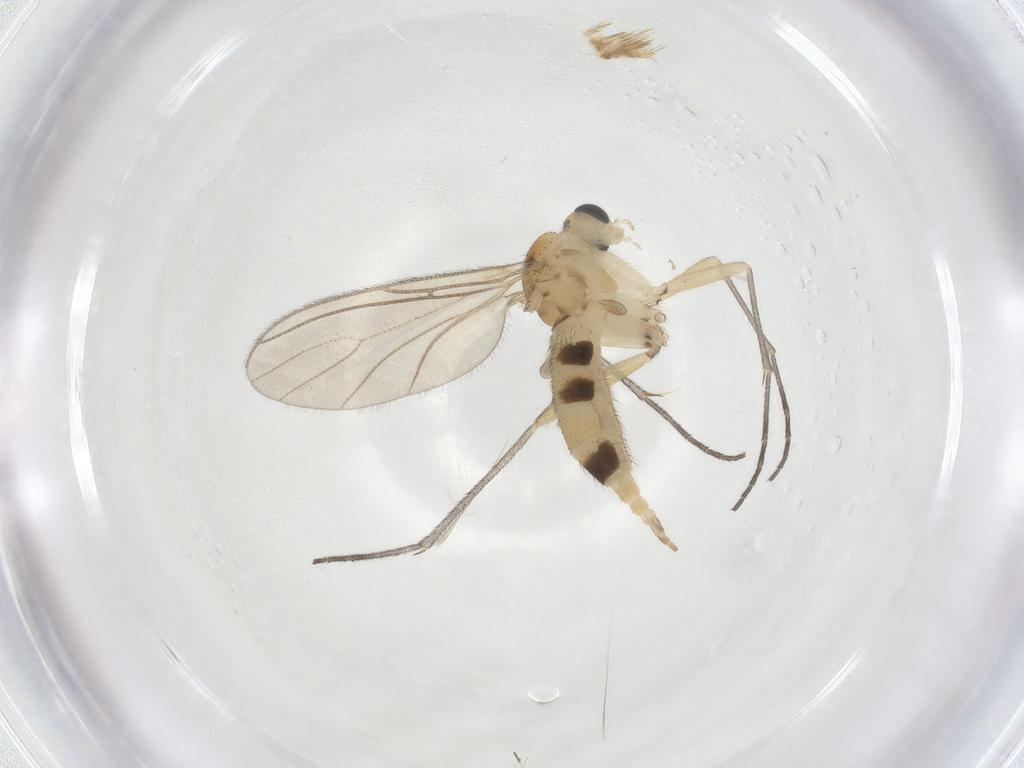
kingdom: Animalia
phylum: Arthropoda
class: Insecta
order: Diptera
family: Sciaridae
